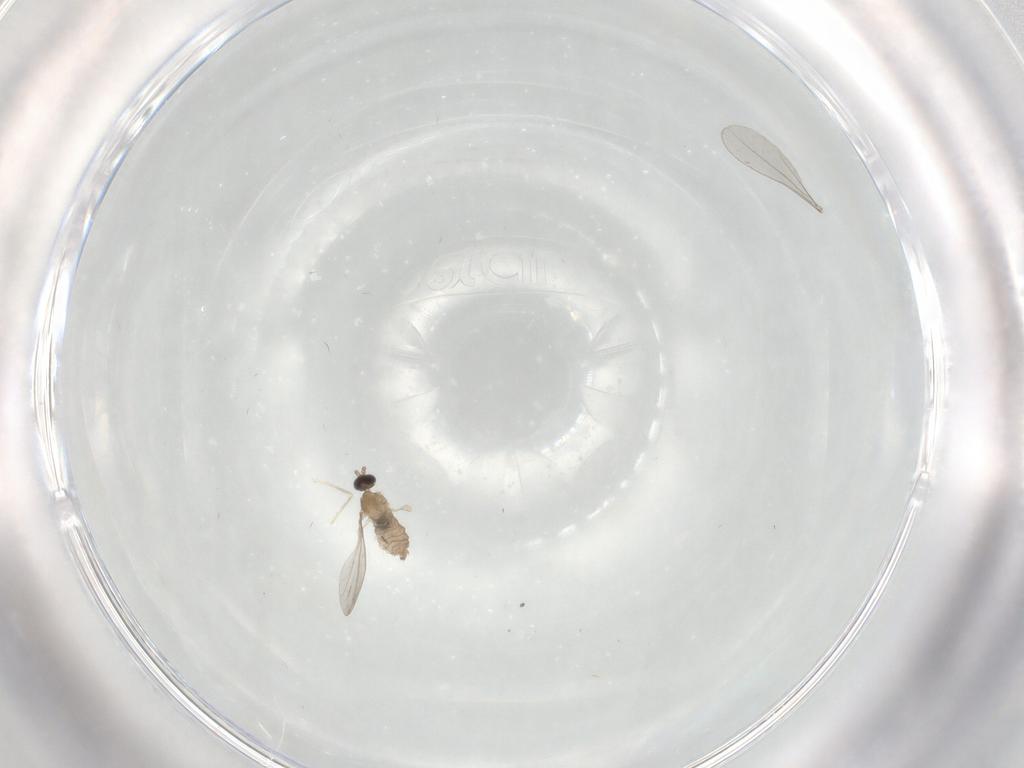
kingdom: Animalia
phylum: Arthropoda
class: Insecta
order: Diptera
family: Cecidomyiidae
